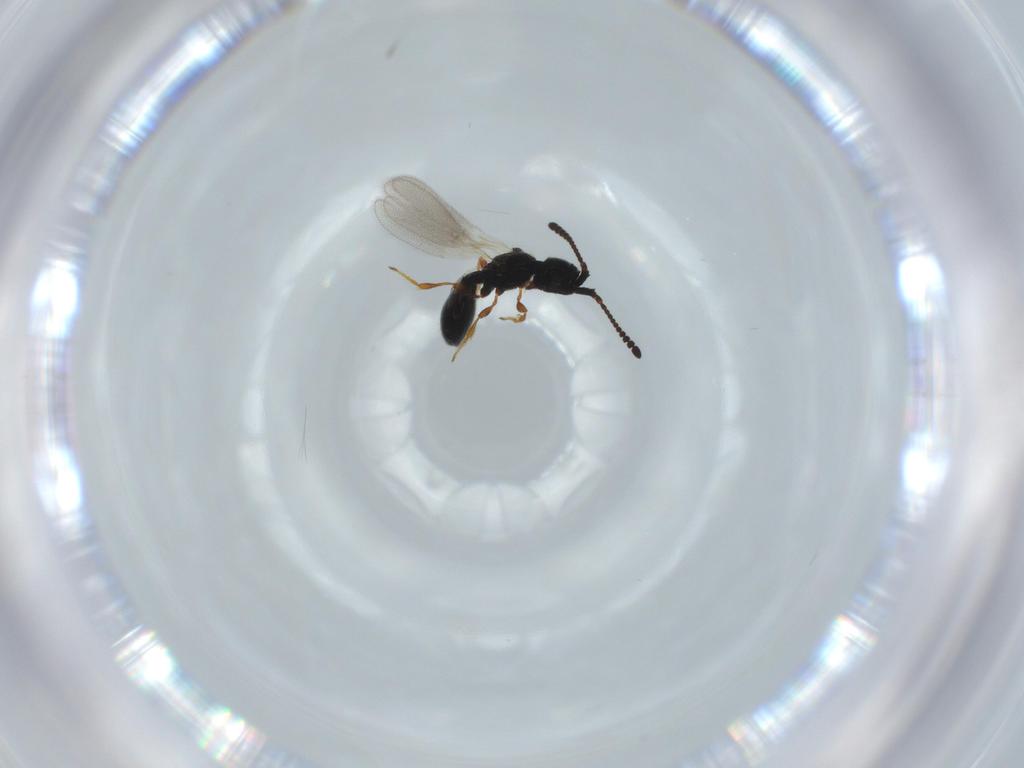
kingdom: Animalia
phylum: Arthropoda
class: Insecta
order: Hymenoptera
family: Diapriidae
